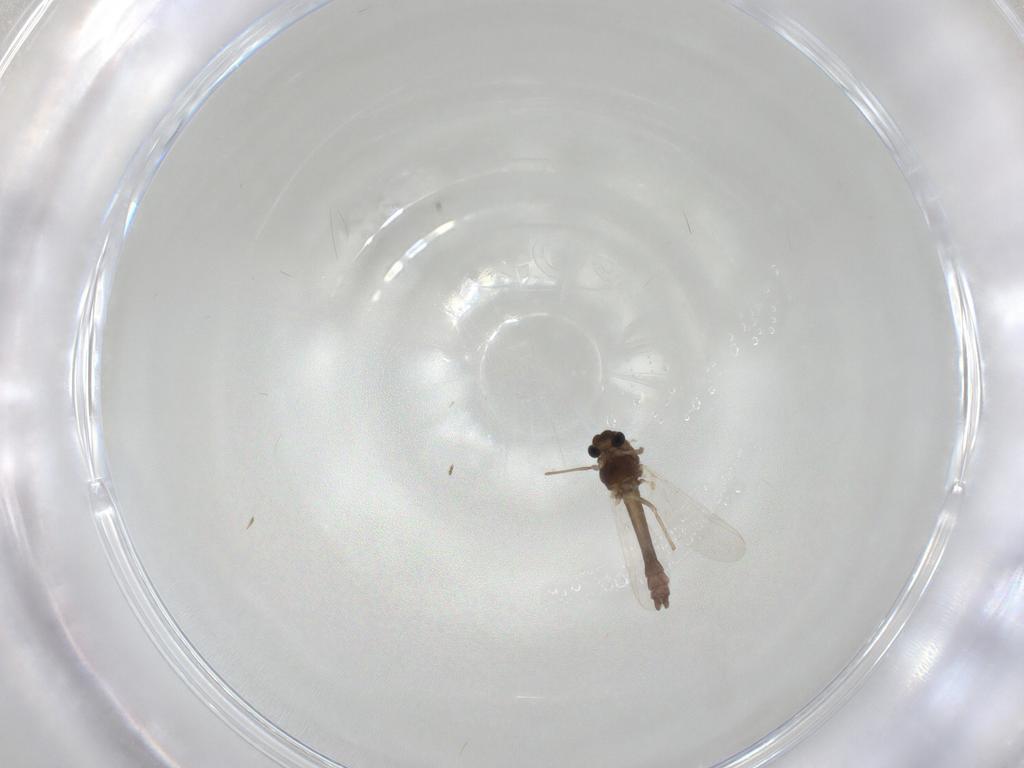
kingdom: Animalia
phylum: Arthropoda
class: Insecta
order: Diptera
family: Chironomidae
